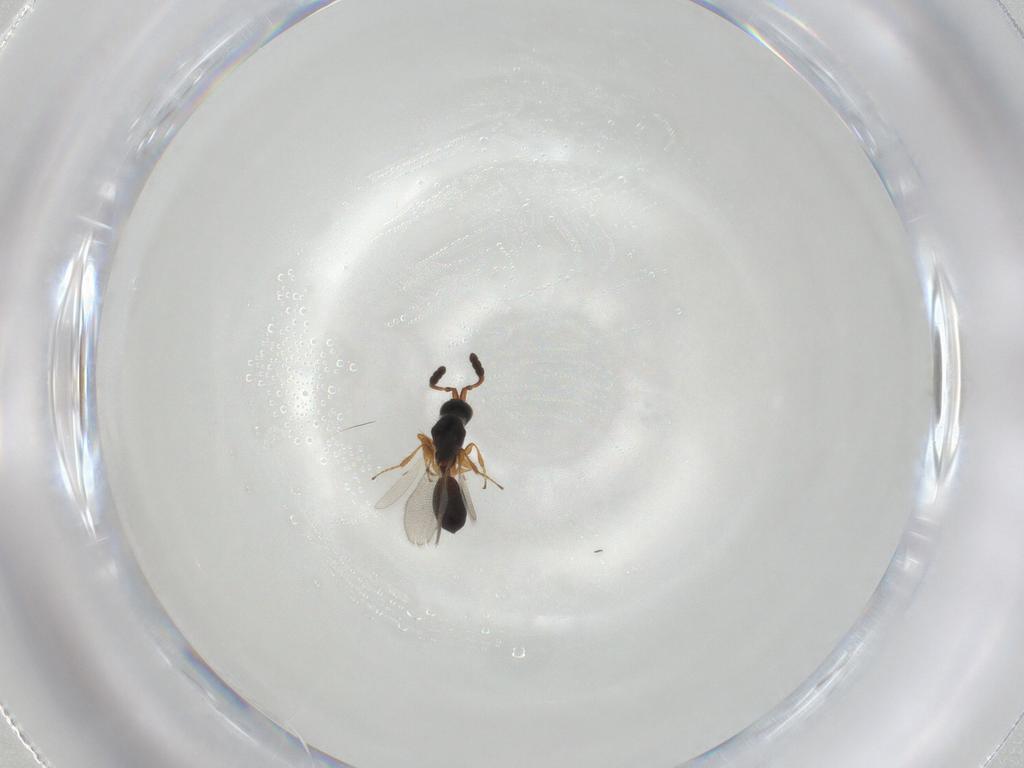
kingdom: Animalia
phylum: Arthropoda
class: Insecta
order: Hymenoptera
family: Diapriidae
